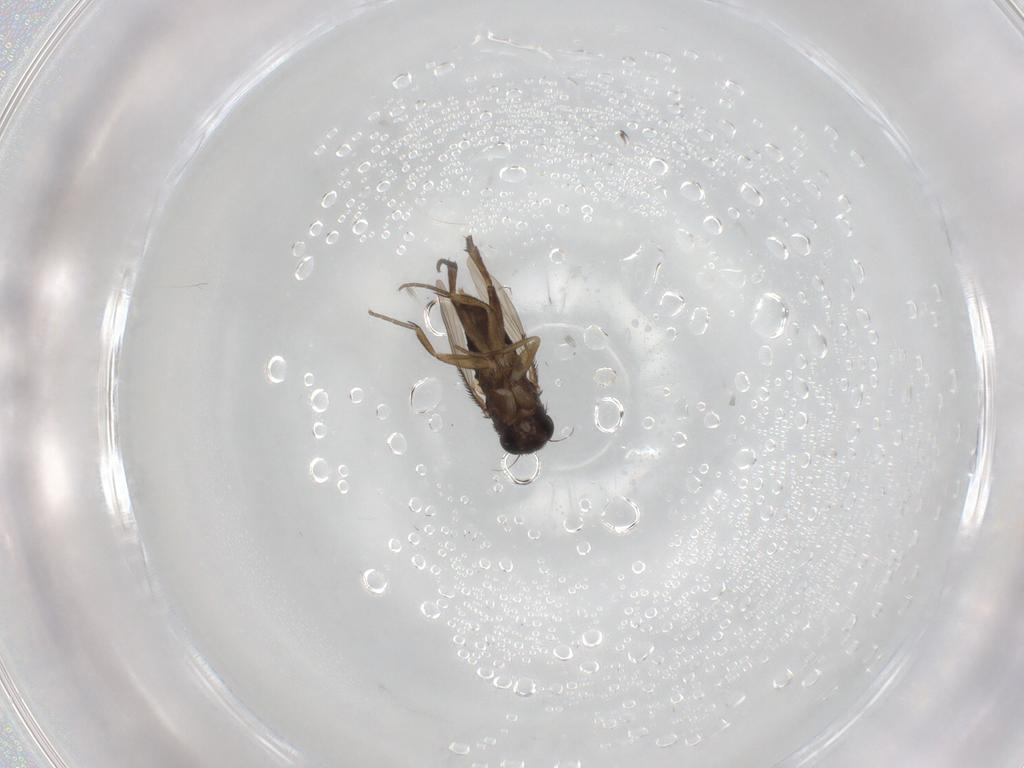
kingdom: Animalia
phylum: Arthropoda
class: Insecta
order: Diptera
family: Phoridae
